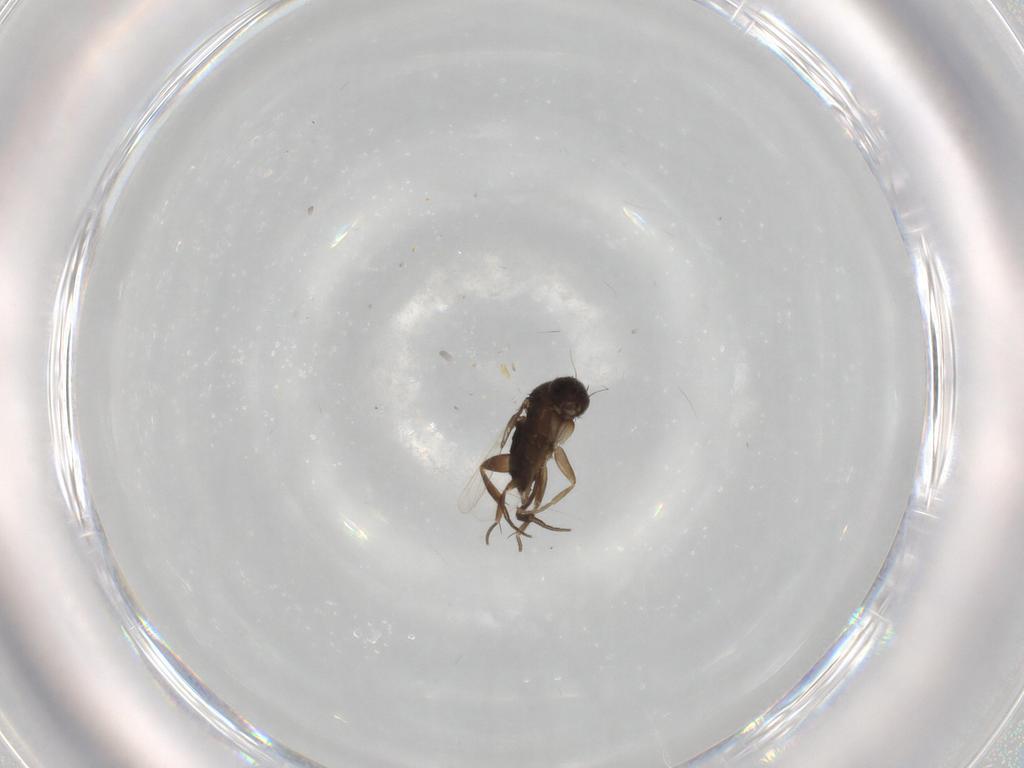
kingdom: Animalia
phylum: Arthropoda
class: Insecta
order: Diptera
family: Phoridae
